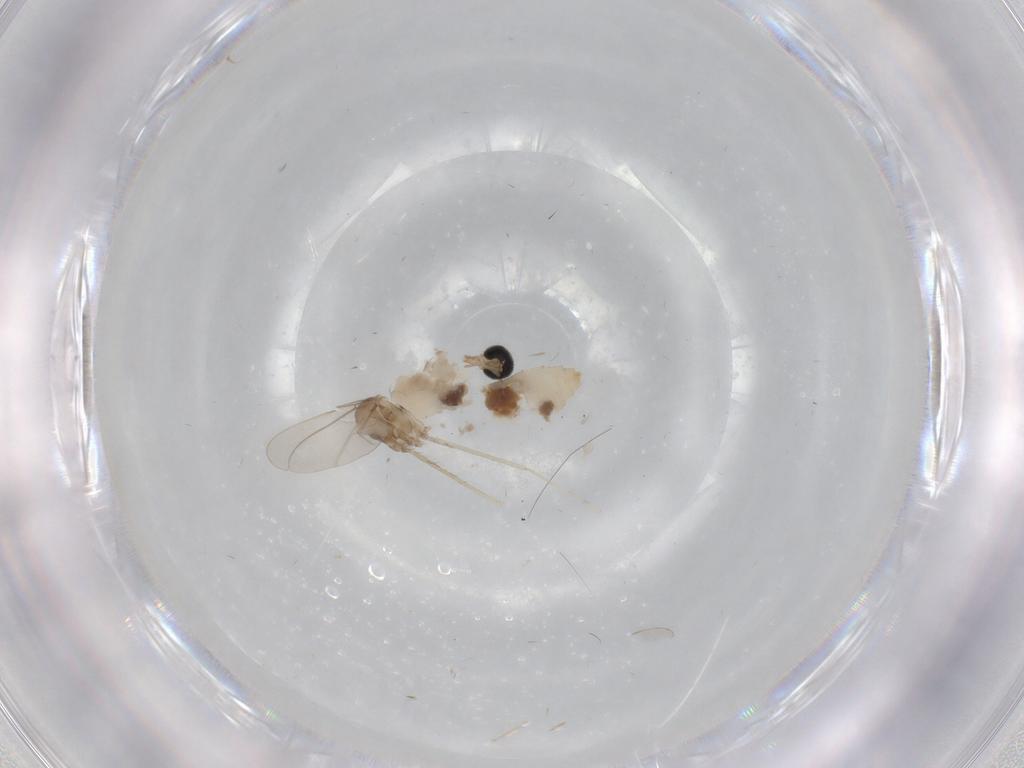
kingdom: Animalia
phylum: Arthropoda
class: Insecta
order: Diptera
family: Cecidomyiidae
